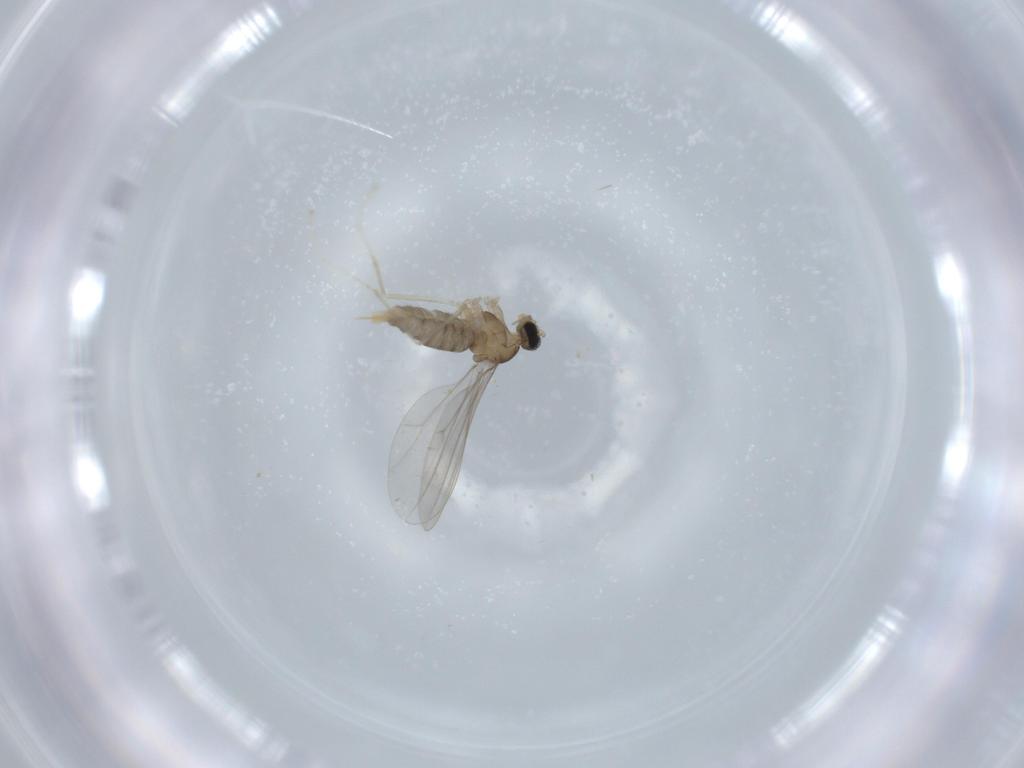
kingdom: Animalia
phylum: Arthropoda
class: Insecta
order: Diptera
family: Cecidomyiidae
